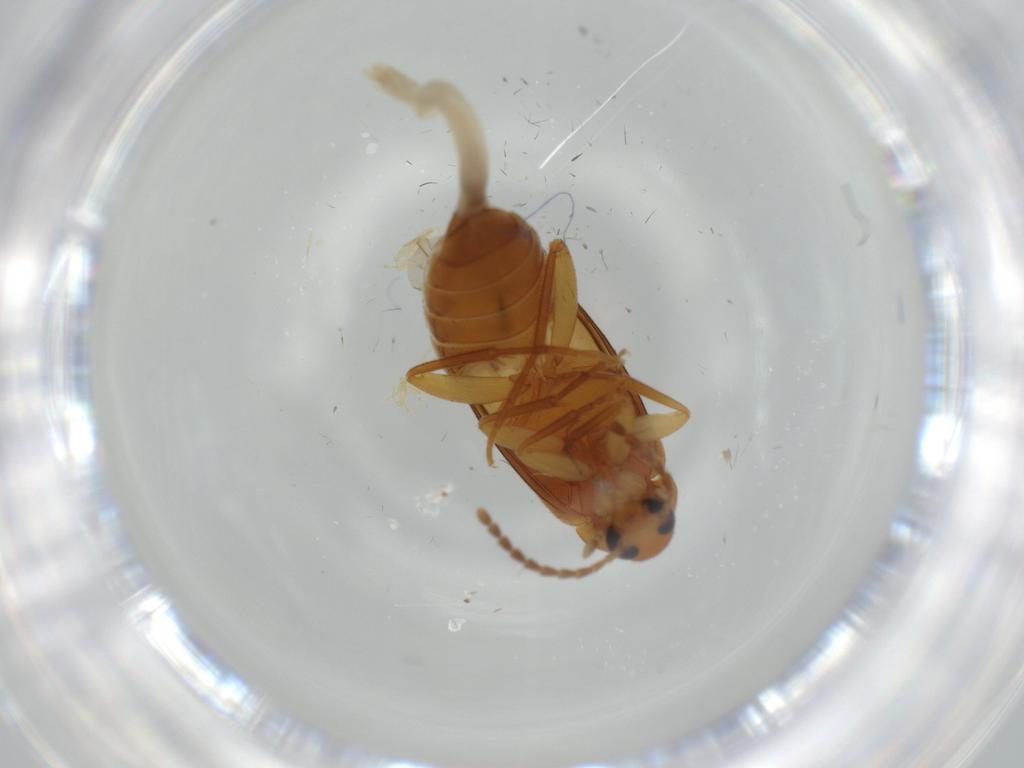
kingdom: Animalia
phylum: Arthropoda
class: Insecta
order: Coleoptera
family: Scraptiidae
